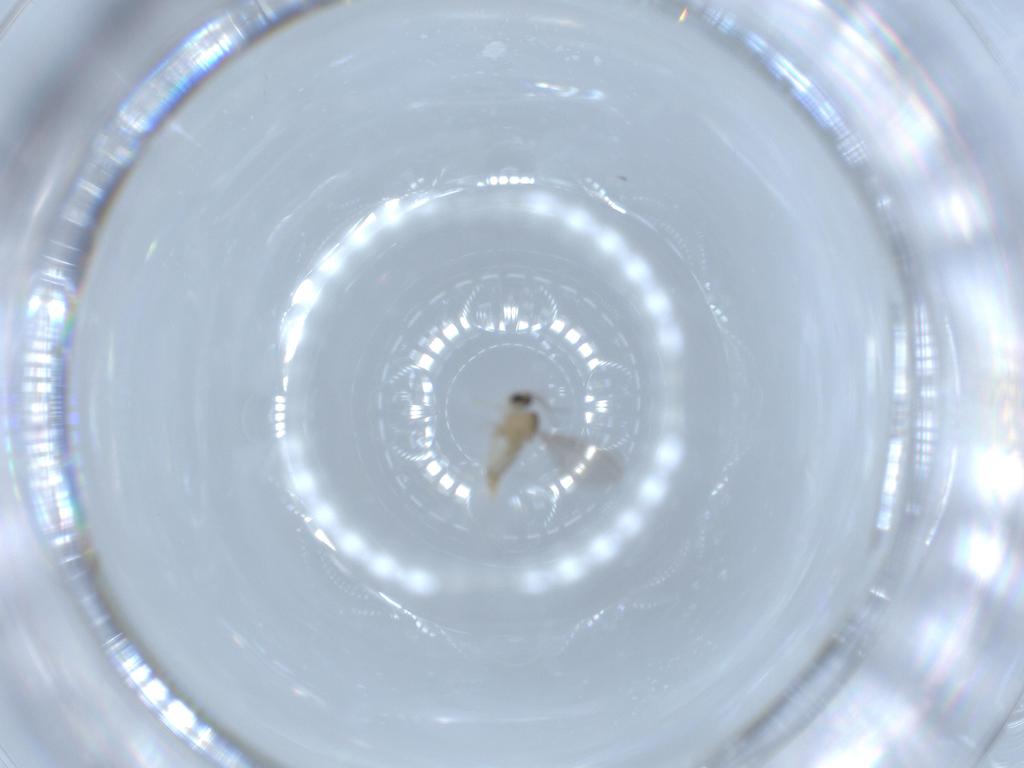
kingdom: Animalia
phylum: Arthropoda
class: Insecta
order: Diptera
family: Cecidomyiidae
